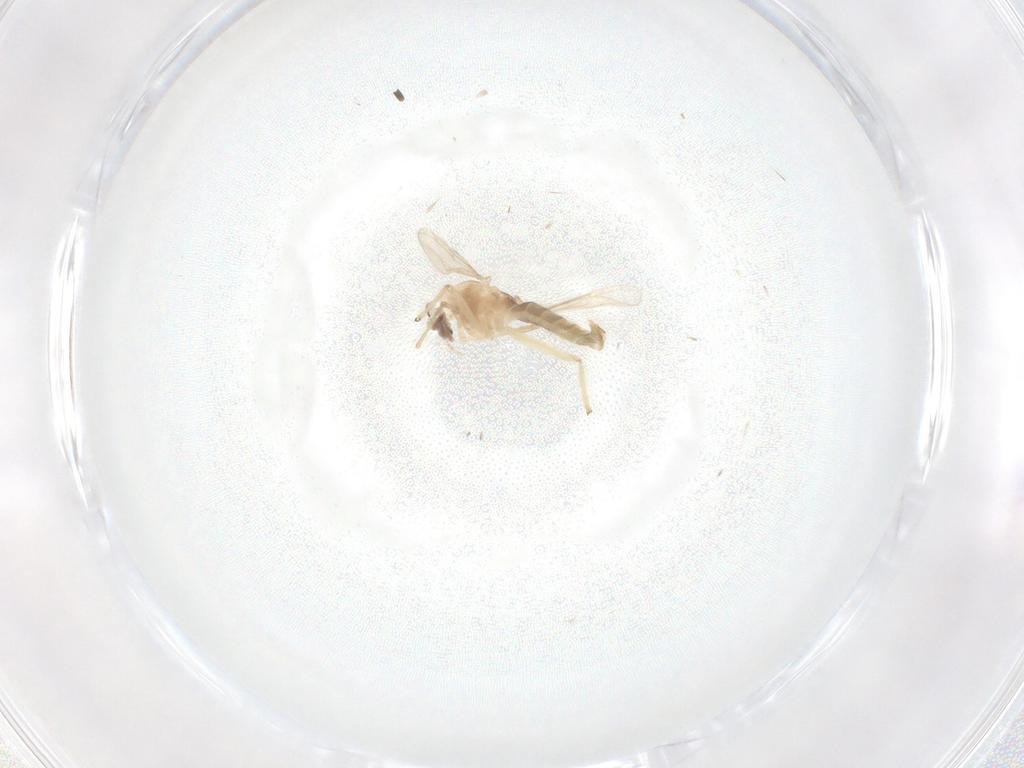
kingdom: Animalia
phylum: Arthropoda
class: Insecta
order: Diptera
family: Chironomidae
